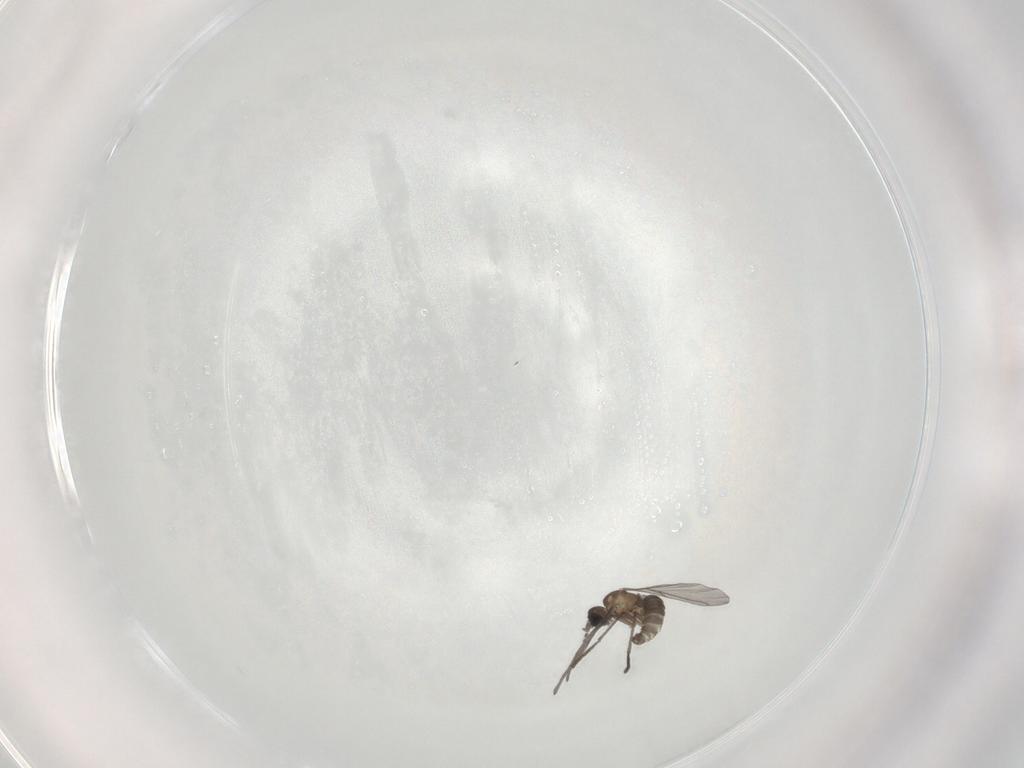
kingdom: Animalia
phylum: Arthropoda
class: Insecta
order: Diptera
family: Sciaridae
